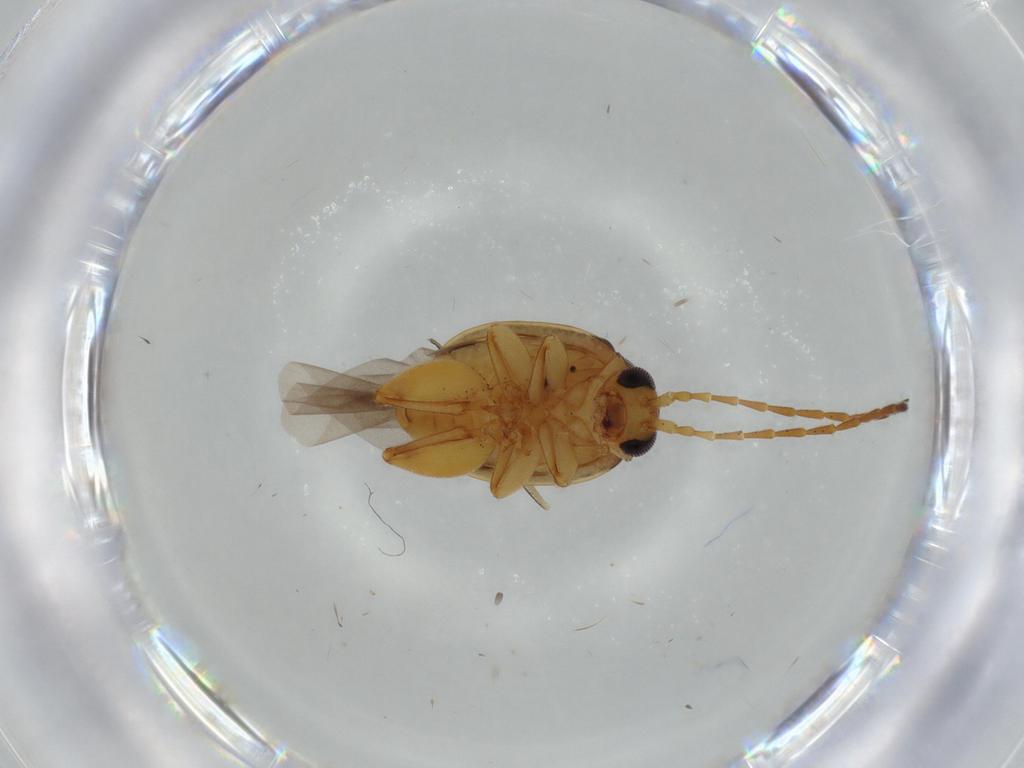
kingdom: Animalia
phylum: Arthropoda
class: Insecta
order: Coleoptera
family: Chrysomelidae
